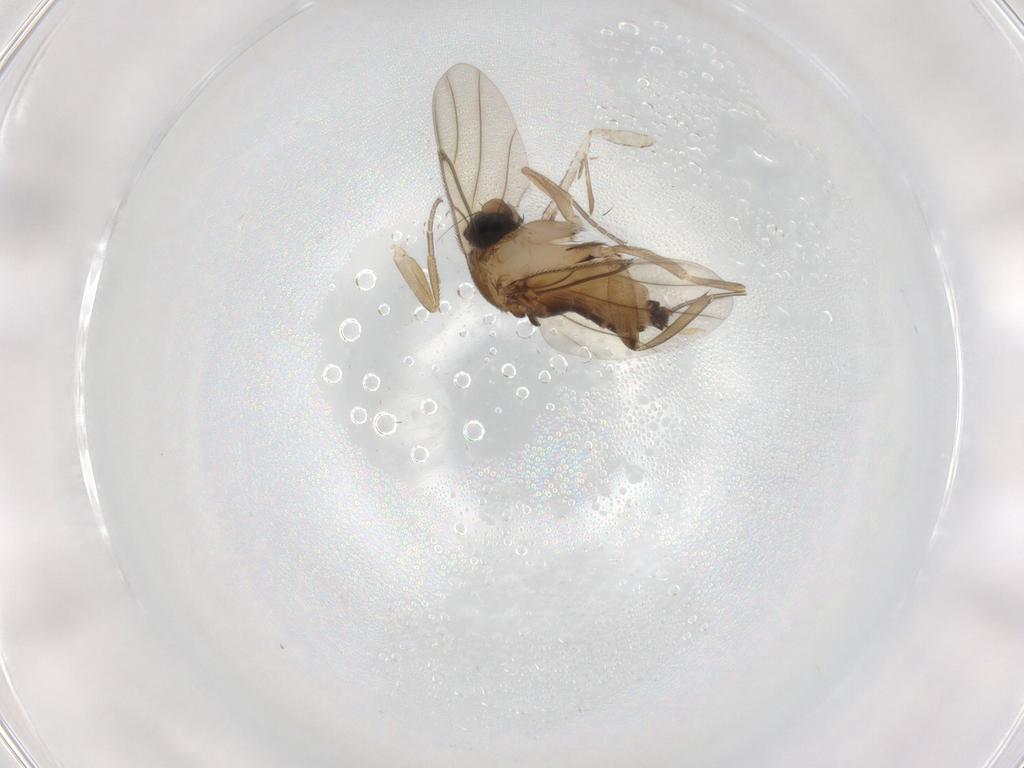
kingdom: Animalia
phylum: Arthropoda
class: Insecta
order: Diptera
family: Phoridae
